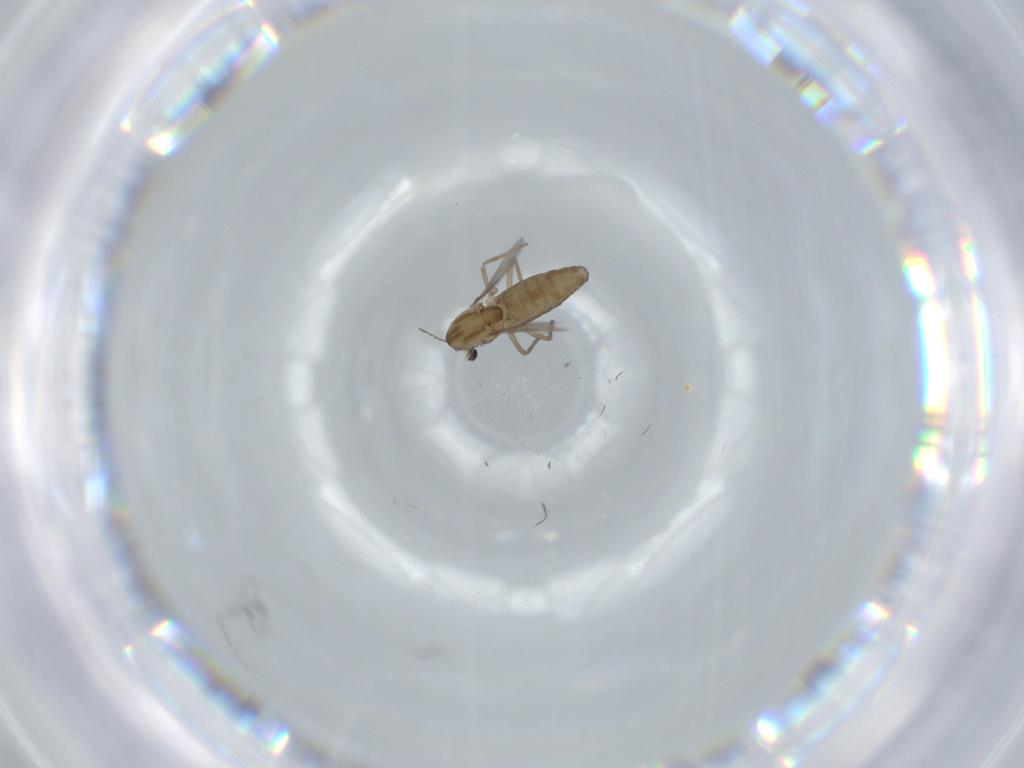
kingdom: Animalia
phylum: Arthropoda
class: Insecta
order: Diptera
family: Chironomidae
